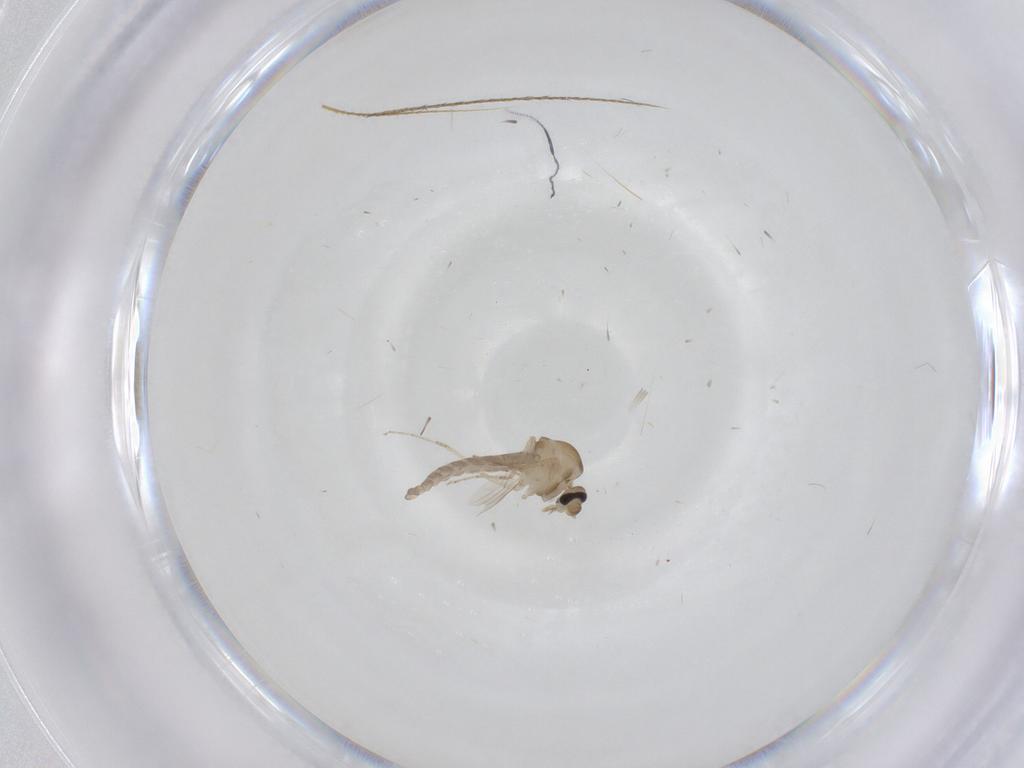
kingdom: Animalia
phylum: Arthropoda
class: Insecta
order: Diptera
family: Ceratopogonidae
